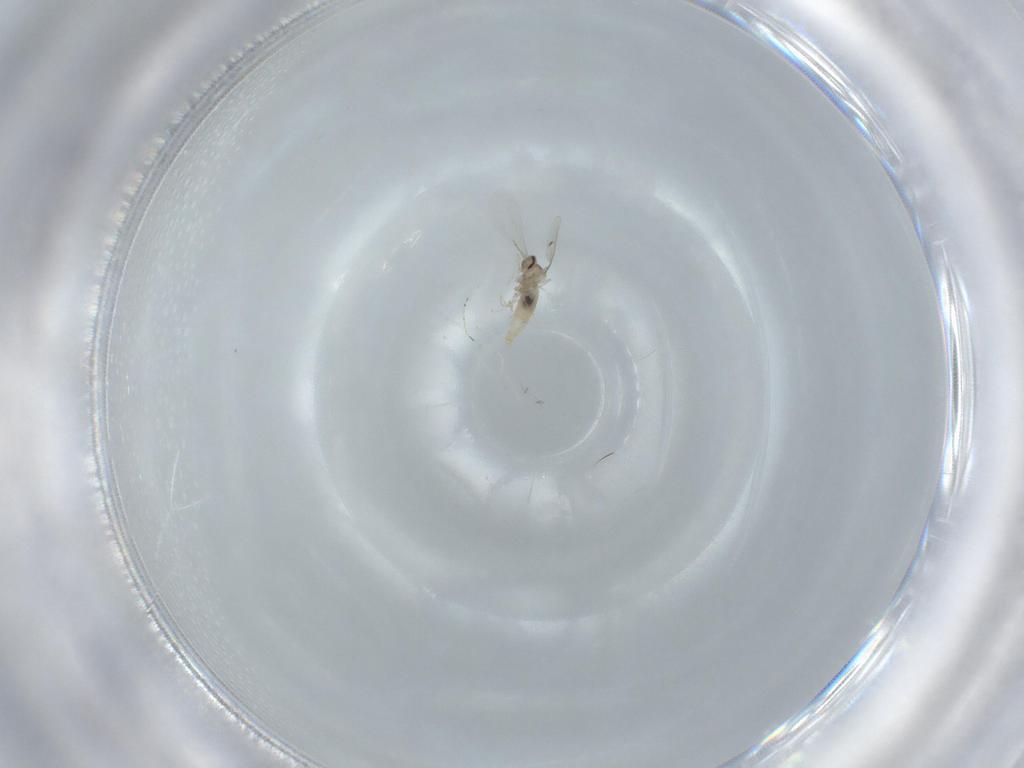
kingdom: Animalia
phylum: Arthropoda
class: Insecta
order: Diptera
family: Cecidomyiidae
